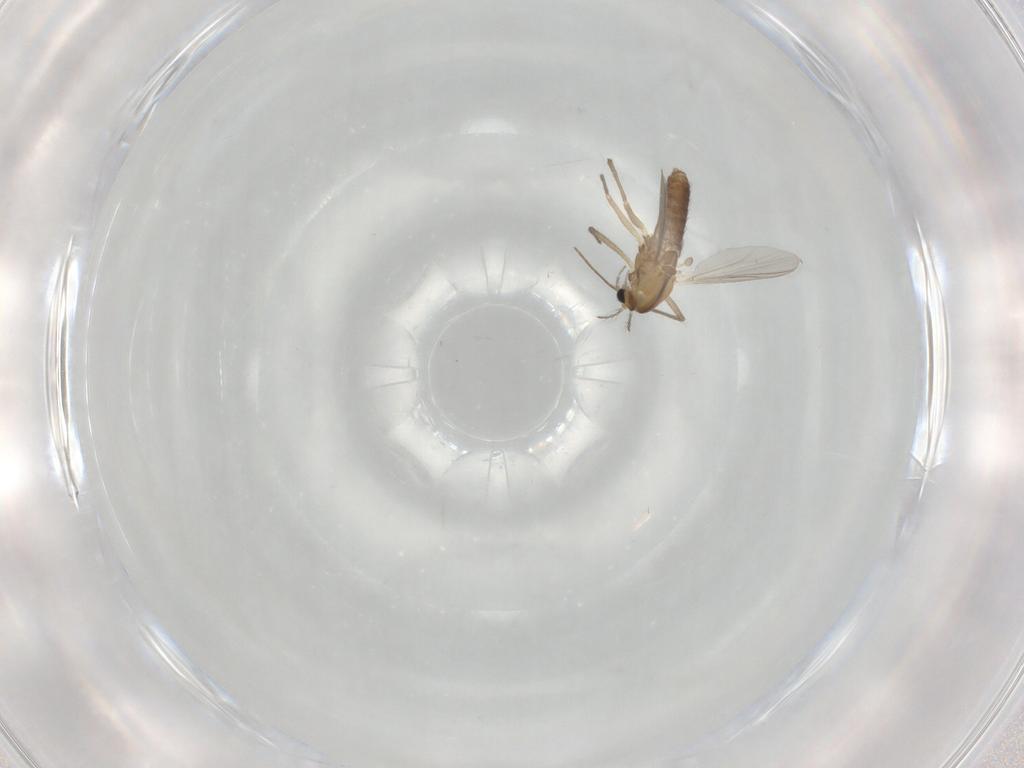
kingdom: Animalia
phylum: Arthropoda
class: Insecta
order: Diptera
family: Chironomidae
